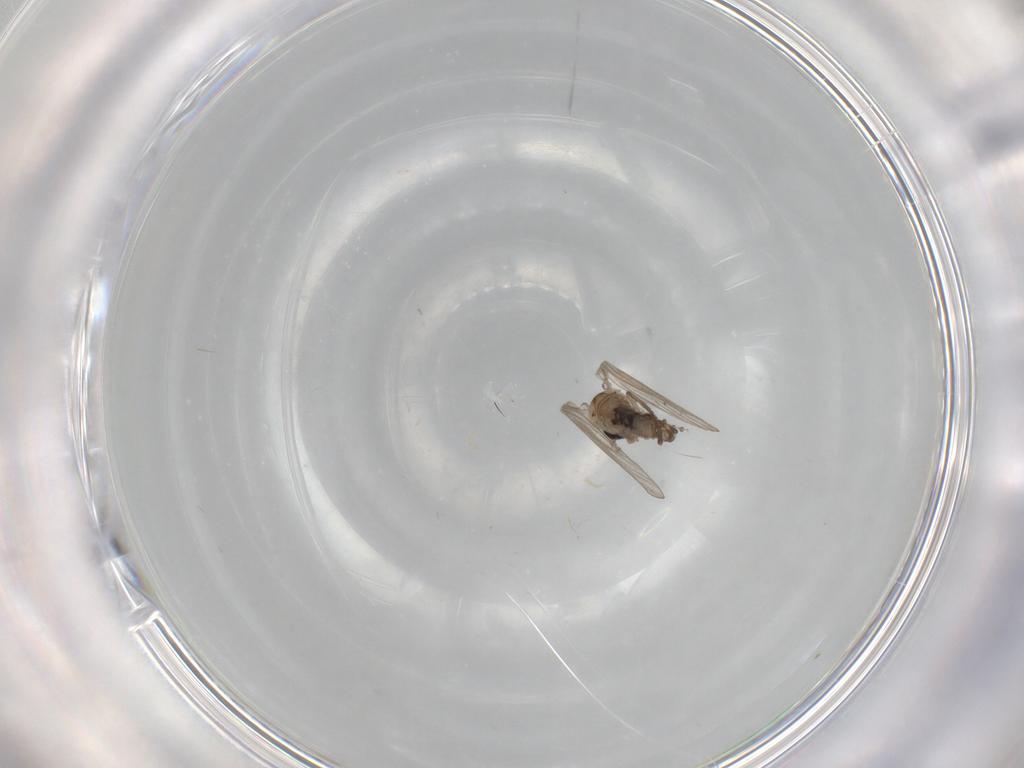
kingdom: Animalia
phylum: Arthropoda
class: Insecta
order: Diptera
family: Psychodidae
